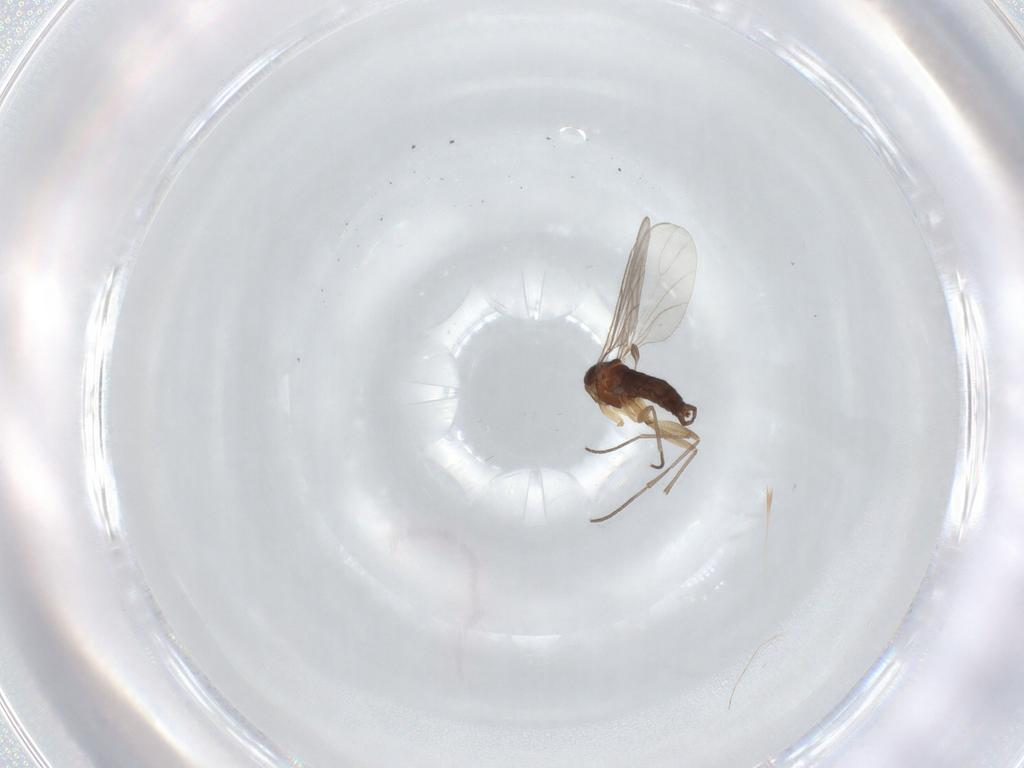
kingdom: Animalia
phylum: Arthropoda
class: Insecta
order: Diptera
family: Sciaridae
